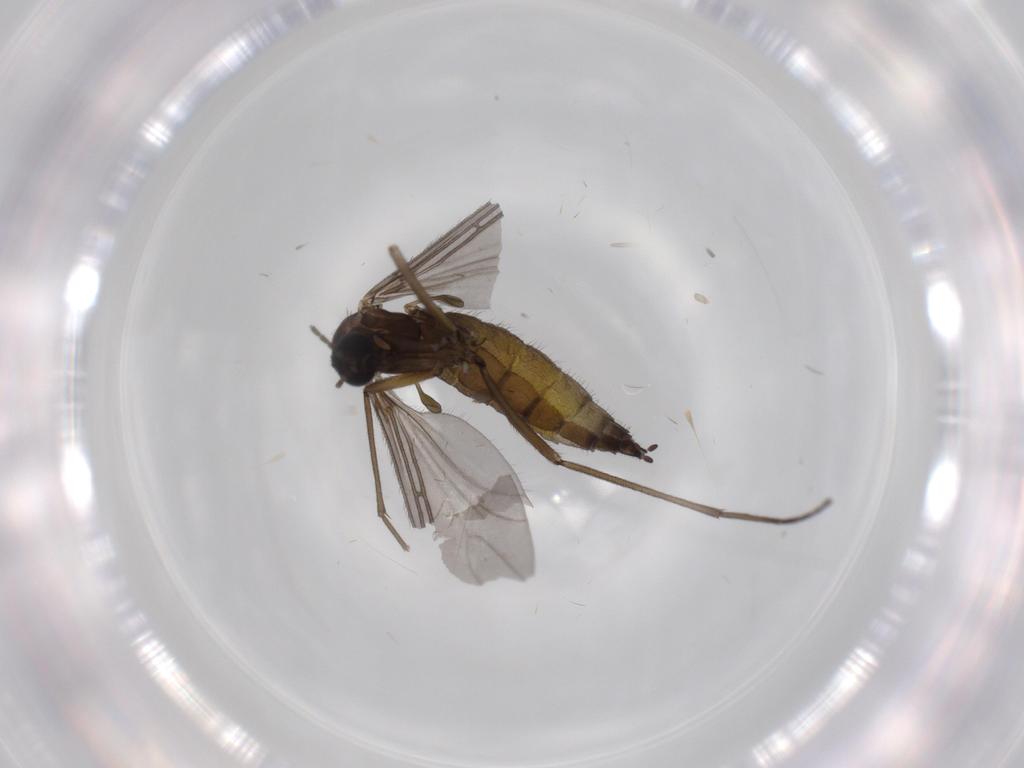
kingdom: Animalia
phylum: Arthropoda
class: Insecta
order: Diptera
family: Sciaridae
